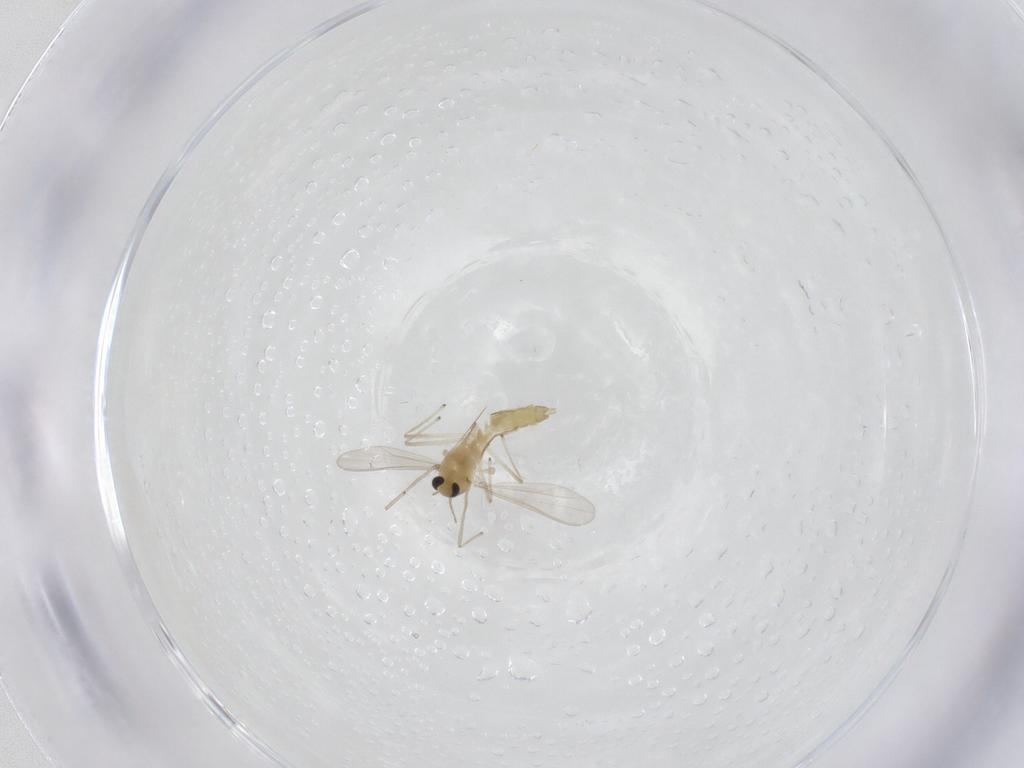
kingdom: Animalia
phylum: Arthropoda
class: Insecta
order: Diptera
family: Chironomidae
